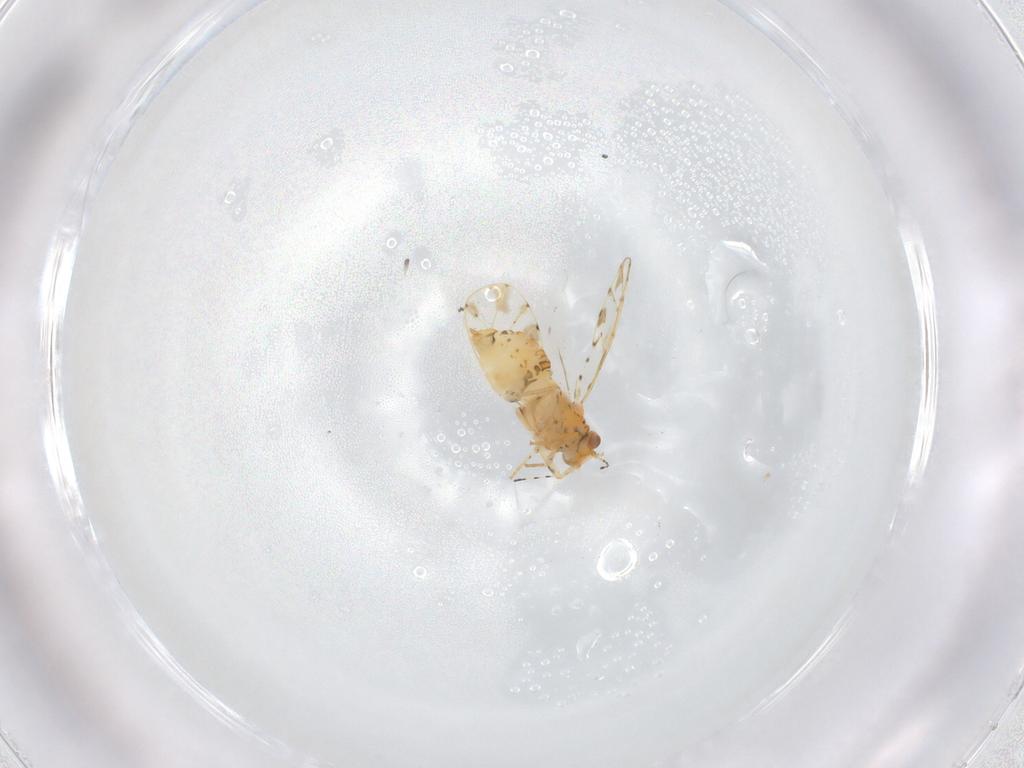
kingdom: Animalia
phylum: Arthropoda
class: Insecta
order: Hemiptera
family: Aphalaridae
